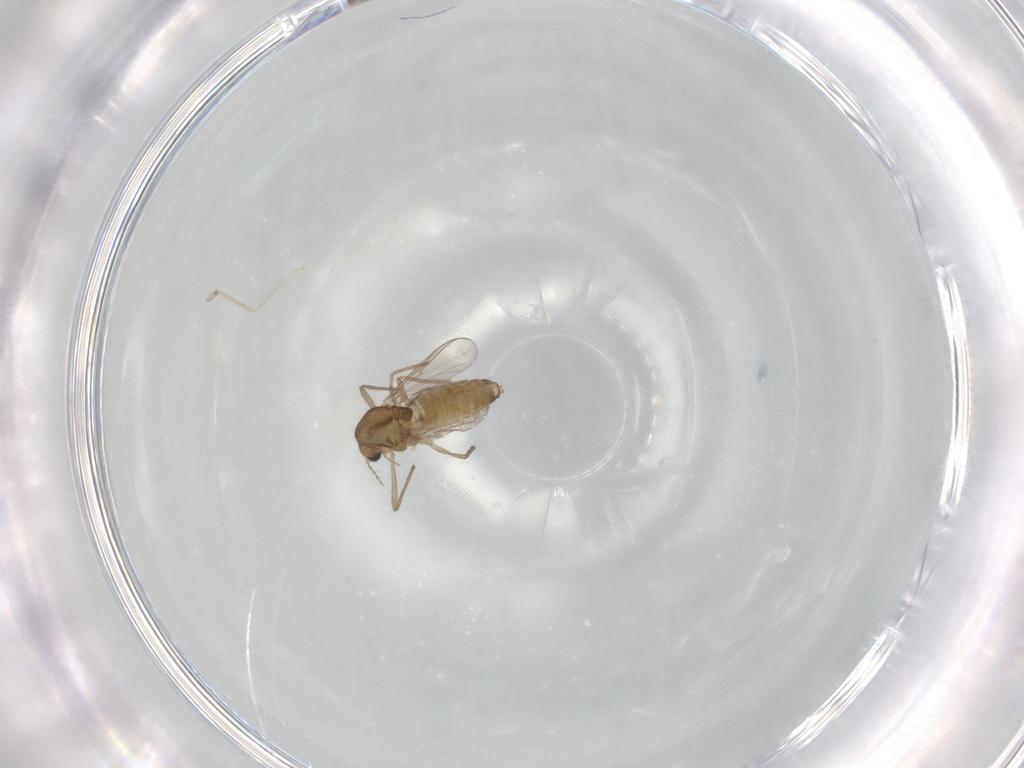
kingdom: Animalia
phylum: Arthropoda
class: Insecta
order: Diptera
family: Chironomidae
